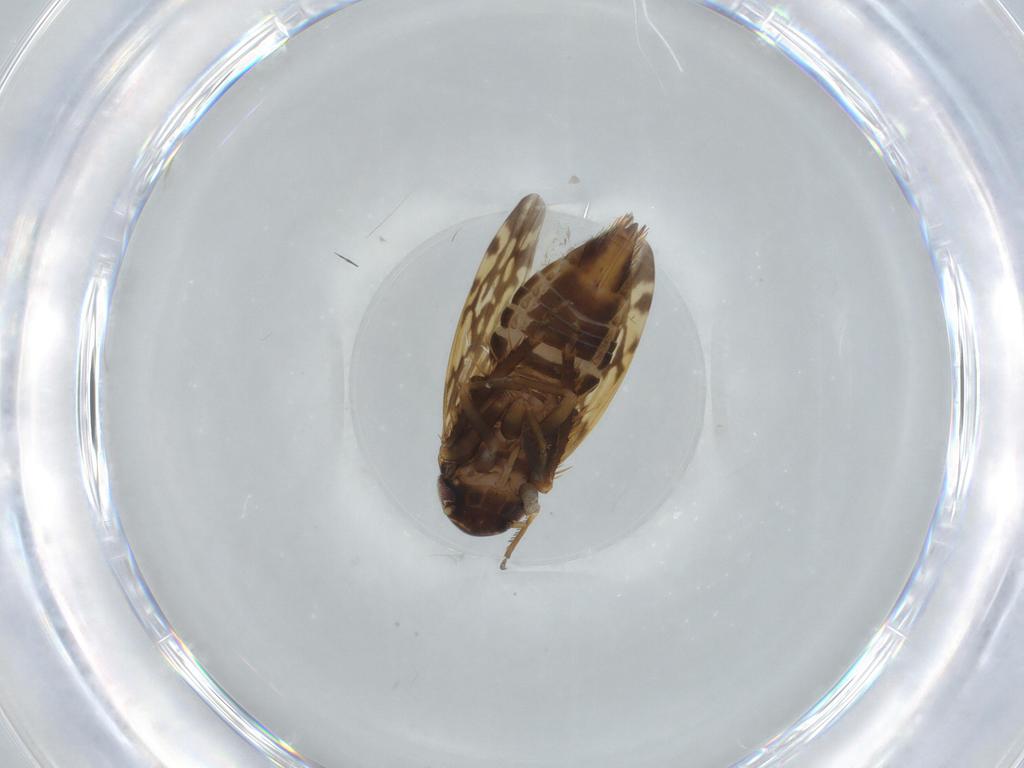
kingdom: Animalia
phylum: Arthropoda
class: Insecta
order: Hemiptera
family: Cicadellidae
